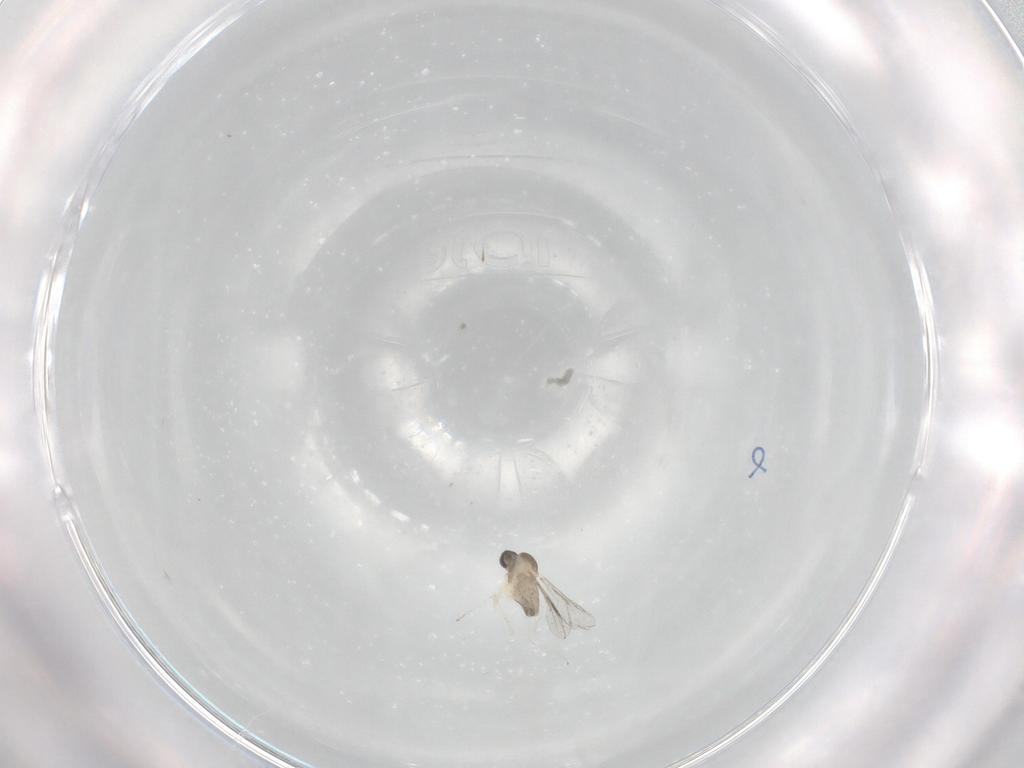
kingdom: Animalia
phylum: Arthropoda
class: Insecta
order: Diptera
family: Cecidomyiidae
